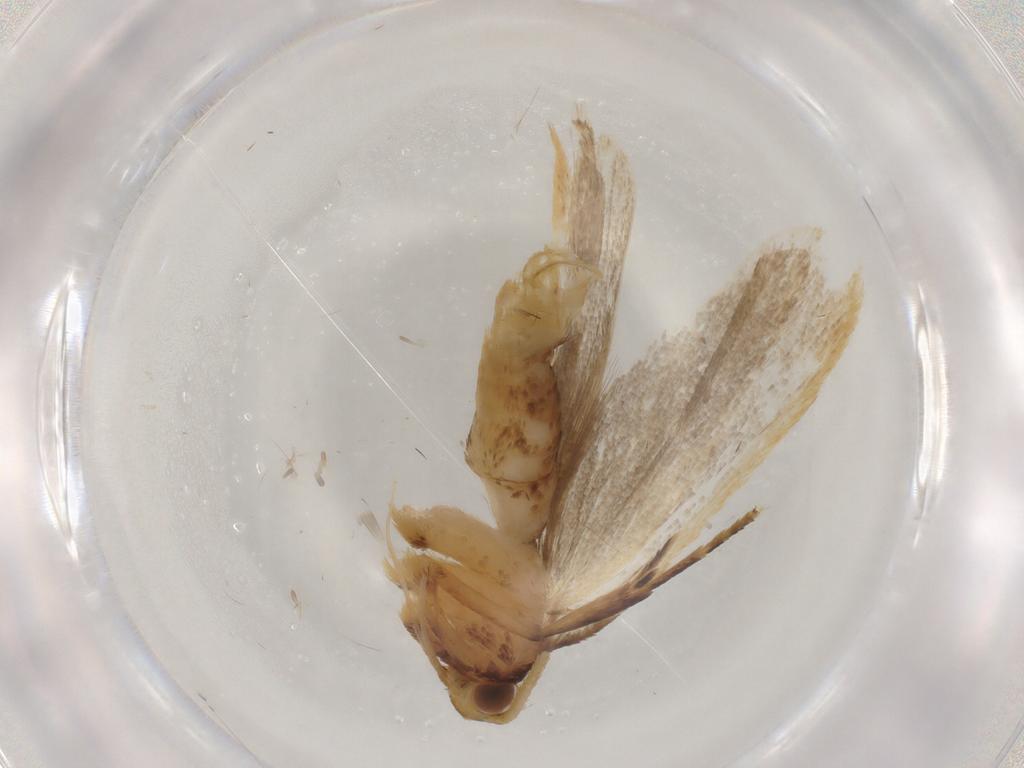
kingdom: Animalia
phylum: Arthropoda
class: Insecta
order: Lepidoptera
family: Lecithoceridae
